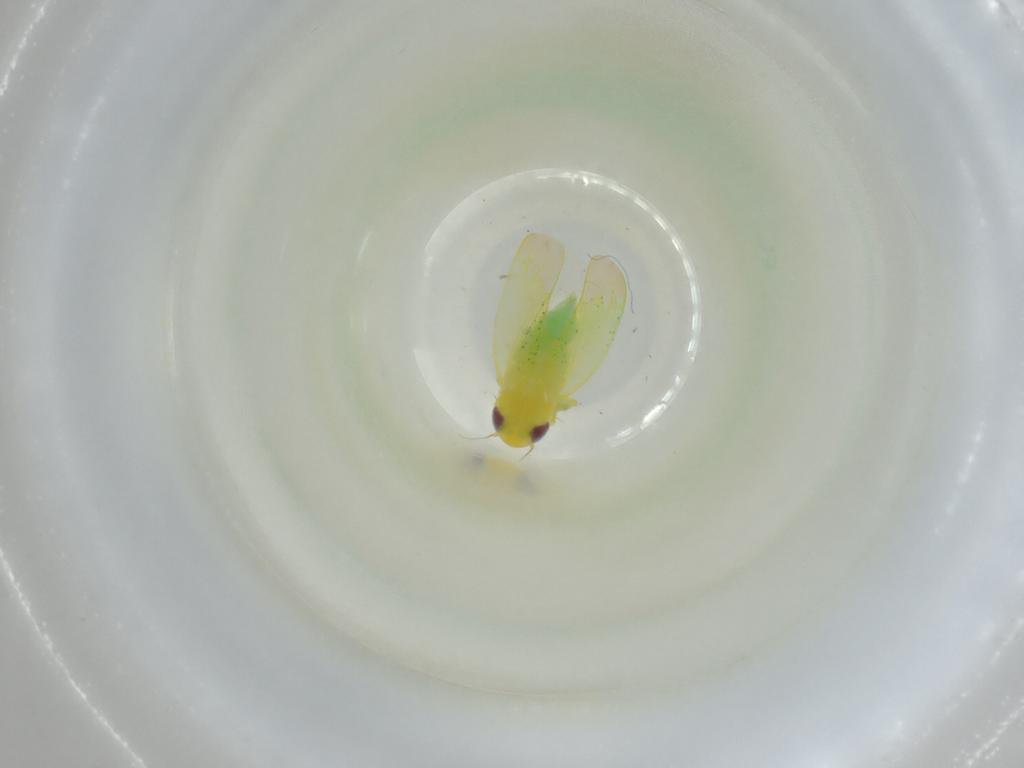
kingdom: Animalia
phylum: Arthropoda
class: Insecta
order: Hemiptera
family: Cicadellidae
